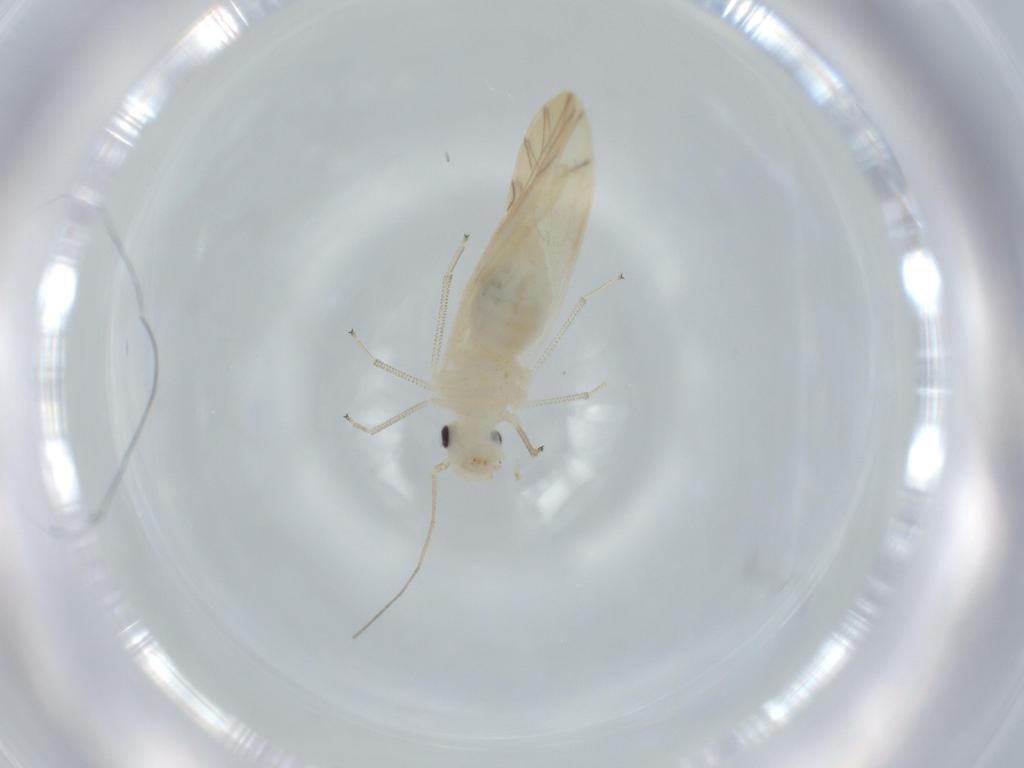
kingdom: Animalia
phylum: Arthropoda
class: Insecta
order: Psocodea
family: Caeciliusidae
